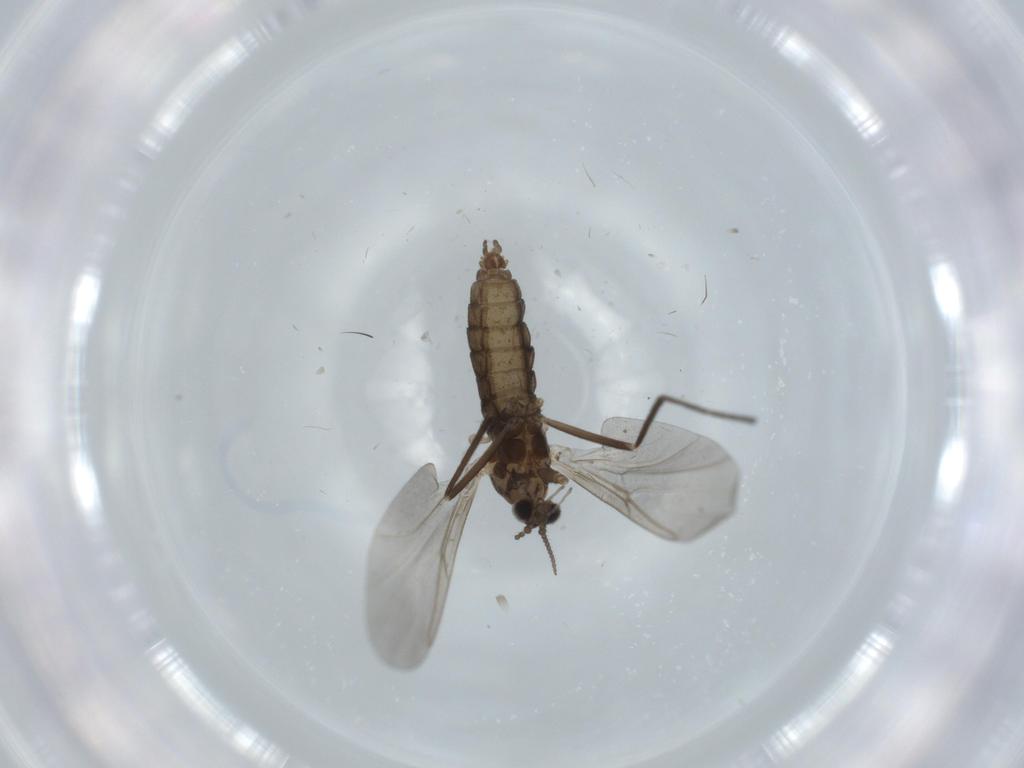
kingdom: Animalia
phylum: Arthropoda
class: Insecta
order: Diptera
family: Cecidomyiidae
